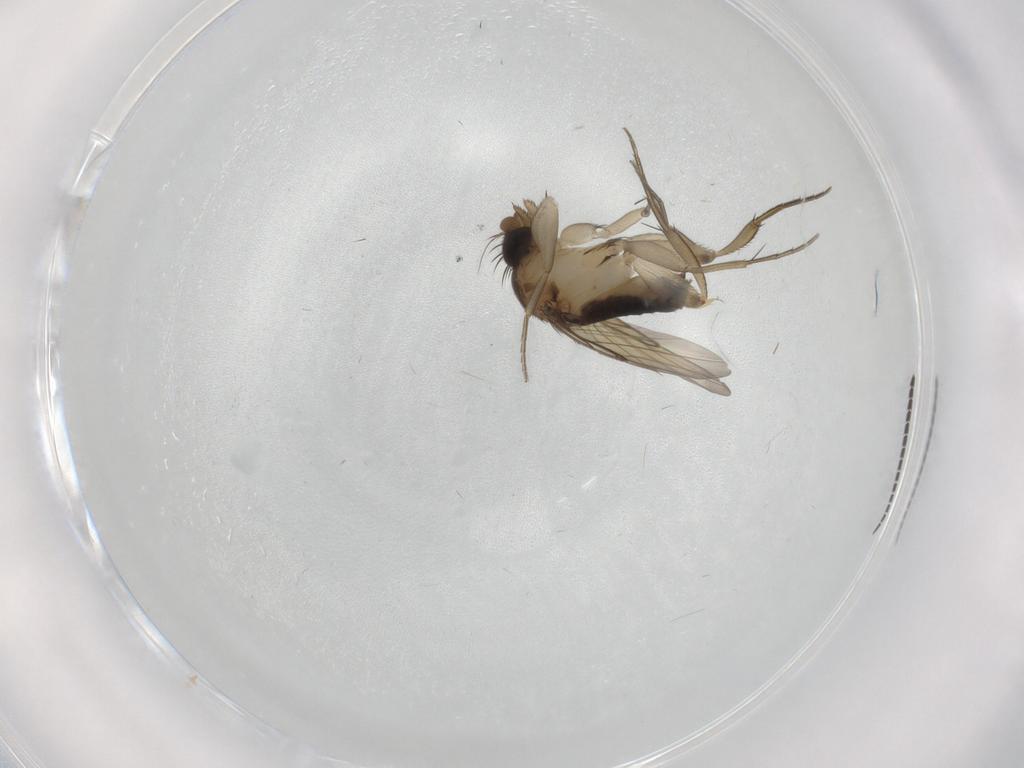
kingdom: Animalia
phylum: Arthropoda
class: Insecta
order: Diptera
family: Phoridae
